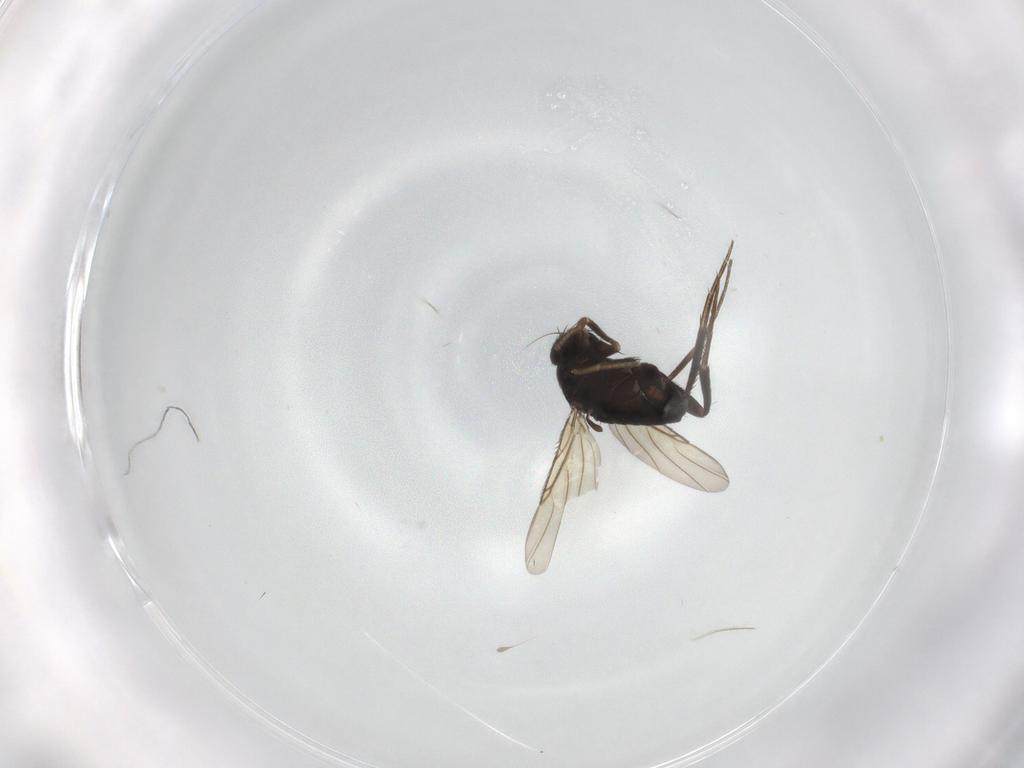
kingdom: Animalia
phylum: Arthropoda
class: Insecta
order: Diptera
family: Phoridae
